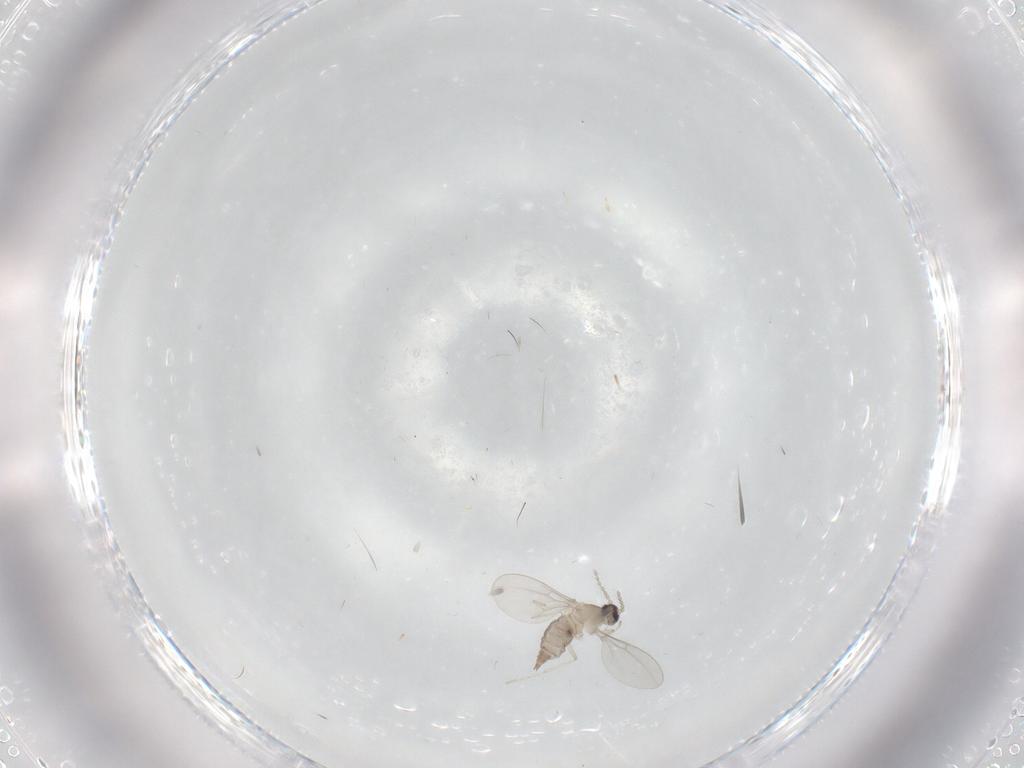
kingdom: Animalia
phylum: Arthropoda
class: Insecta
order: Diptera
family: Cecidomyiidae
